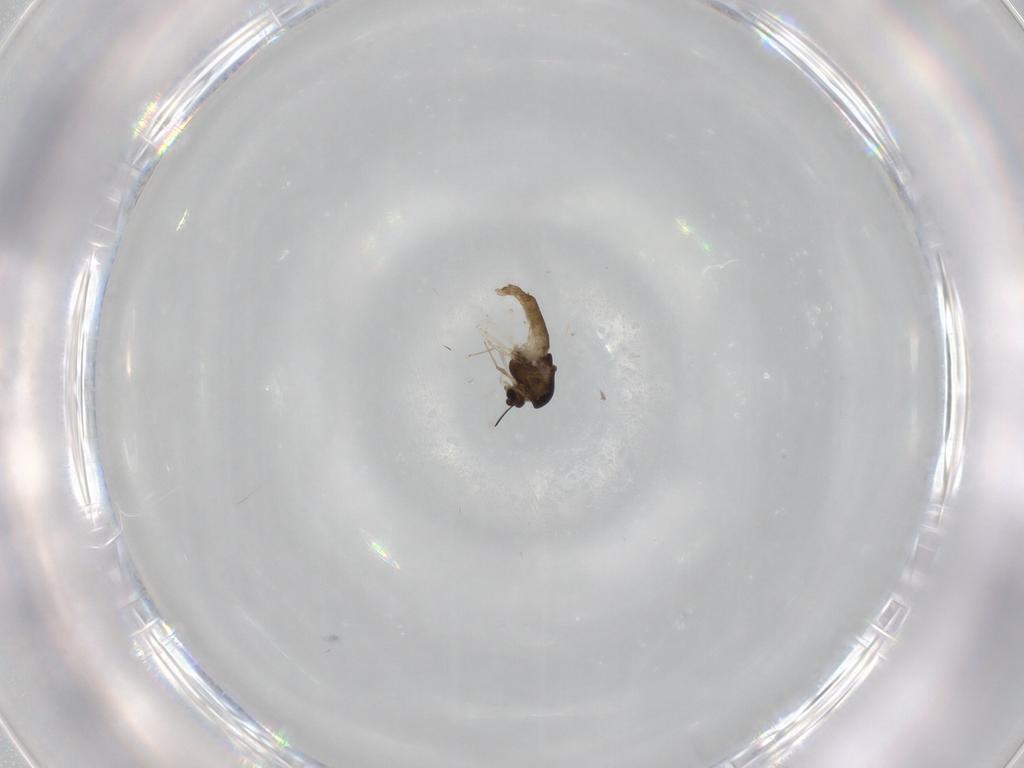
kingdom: Animalia
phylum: Arthropoda
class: Insecta
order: Diptera
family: Chironomidae
